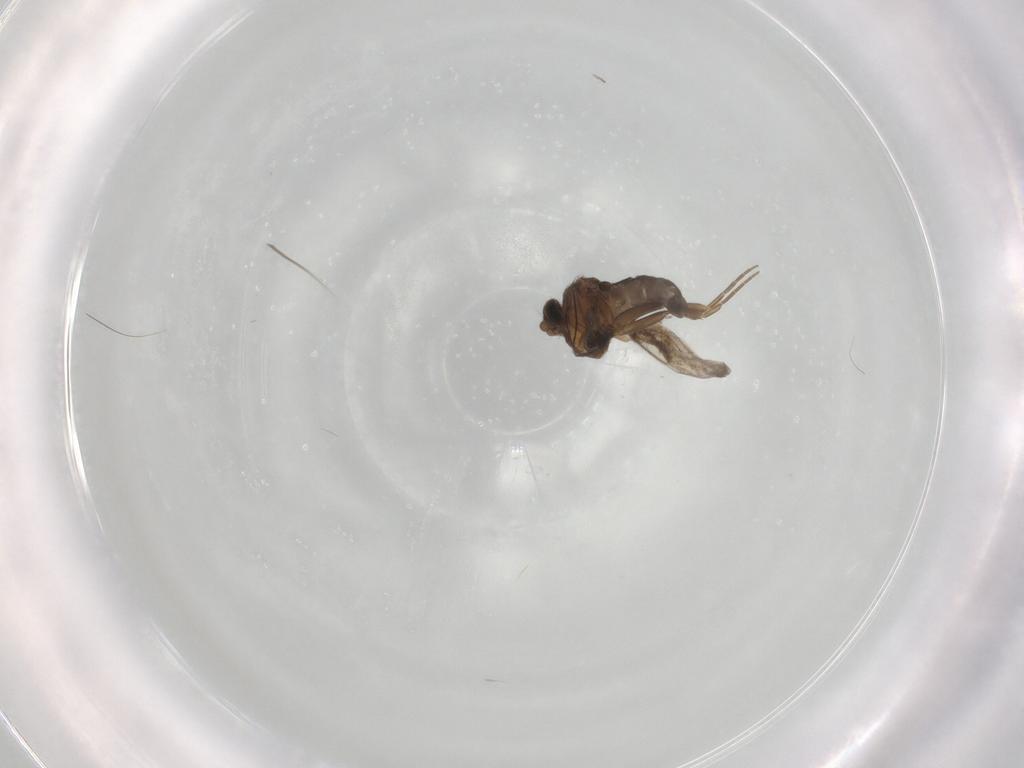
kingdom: Animalia
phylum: Arthropoda
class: Insecta
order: Diptera
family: Phoridae
